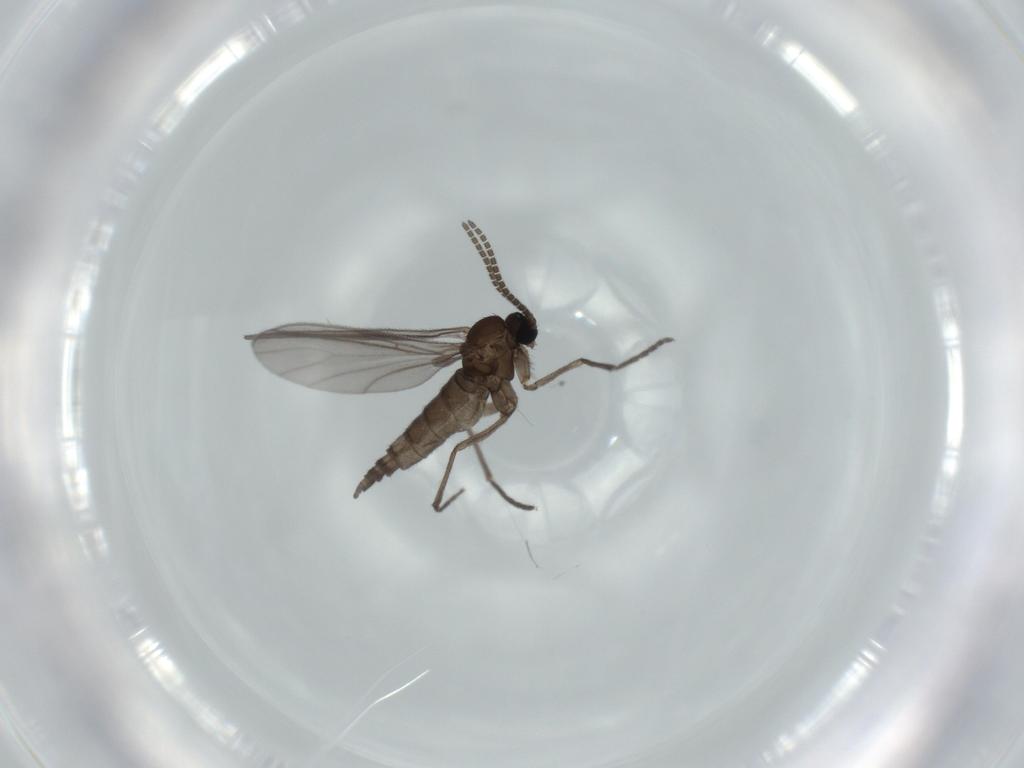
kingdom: Animalia
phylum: Arthropoda
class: Insecta
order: Diptera
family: Sciaridae
